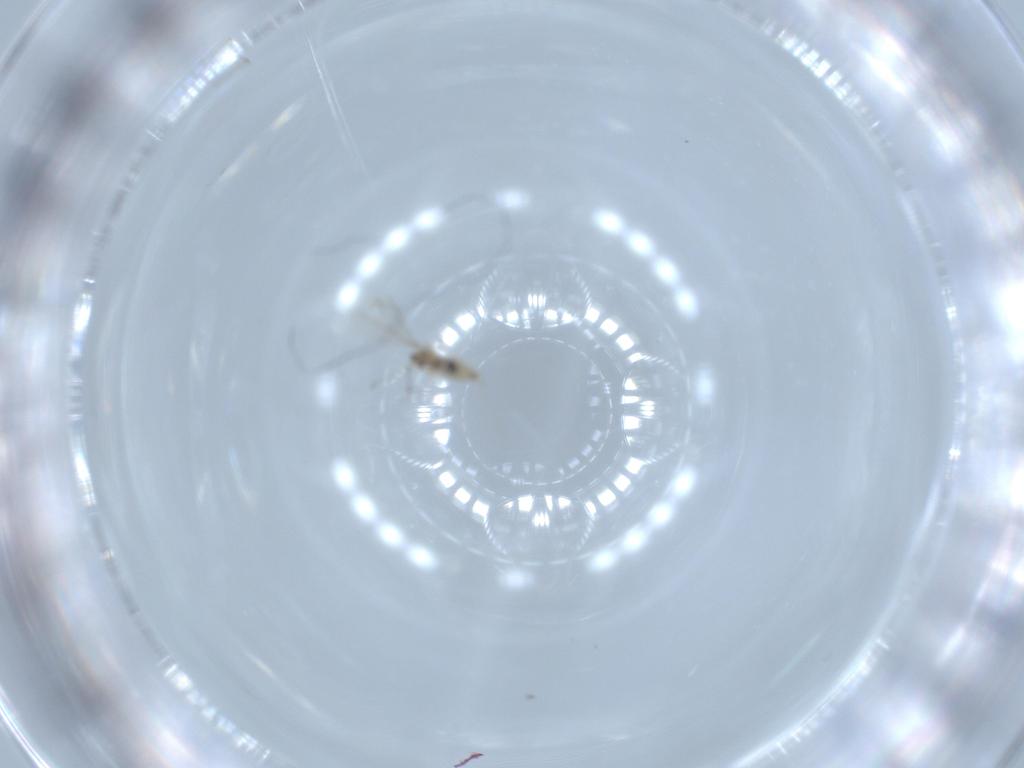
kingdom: Animalia
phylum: Arthropoda
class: Insecta
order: Diptera
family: Cecidomyiidae
